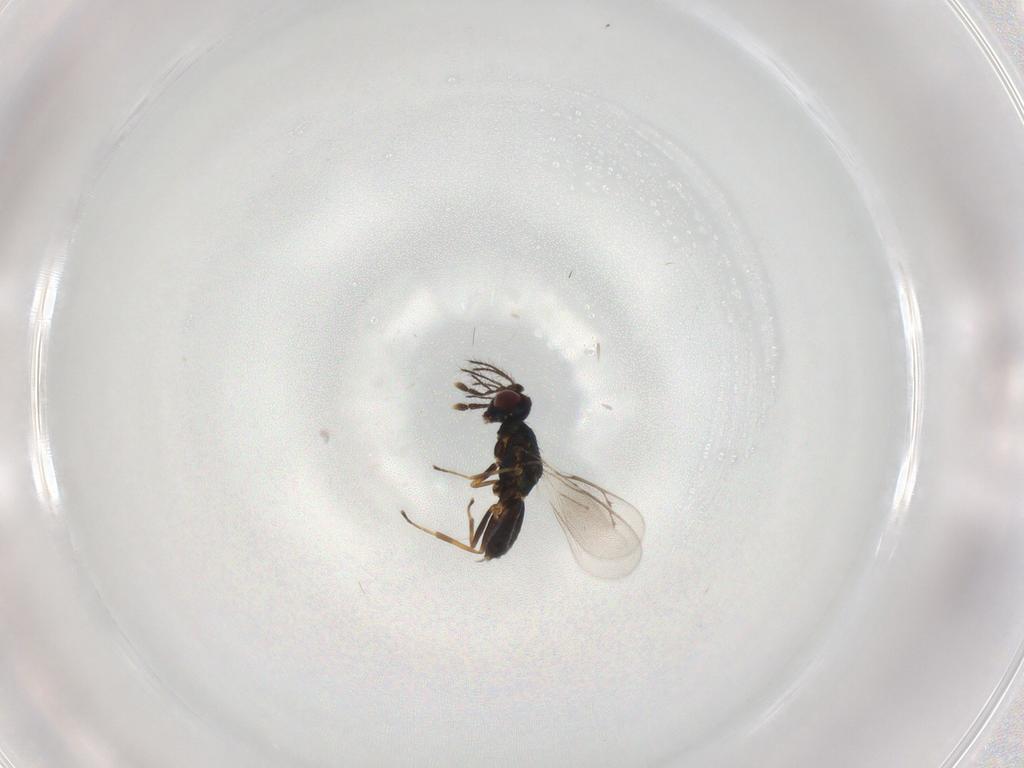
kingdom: Animalia
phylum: Arthropoda
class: Insecta
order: Hymenoptera
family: Eulophidae
